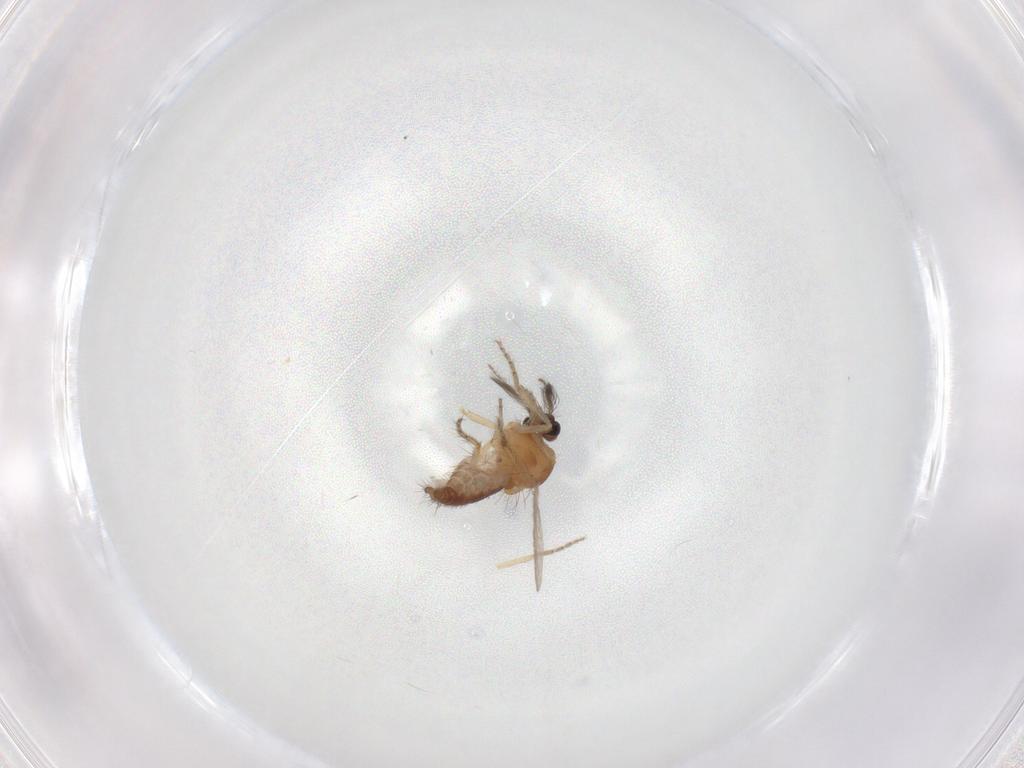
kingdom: Animalia
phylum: Arthropoda
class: Insecta
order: Diptera
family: Ceratopogonidae
